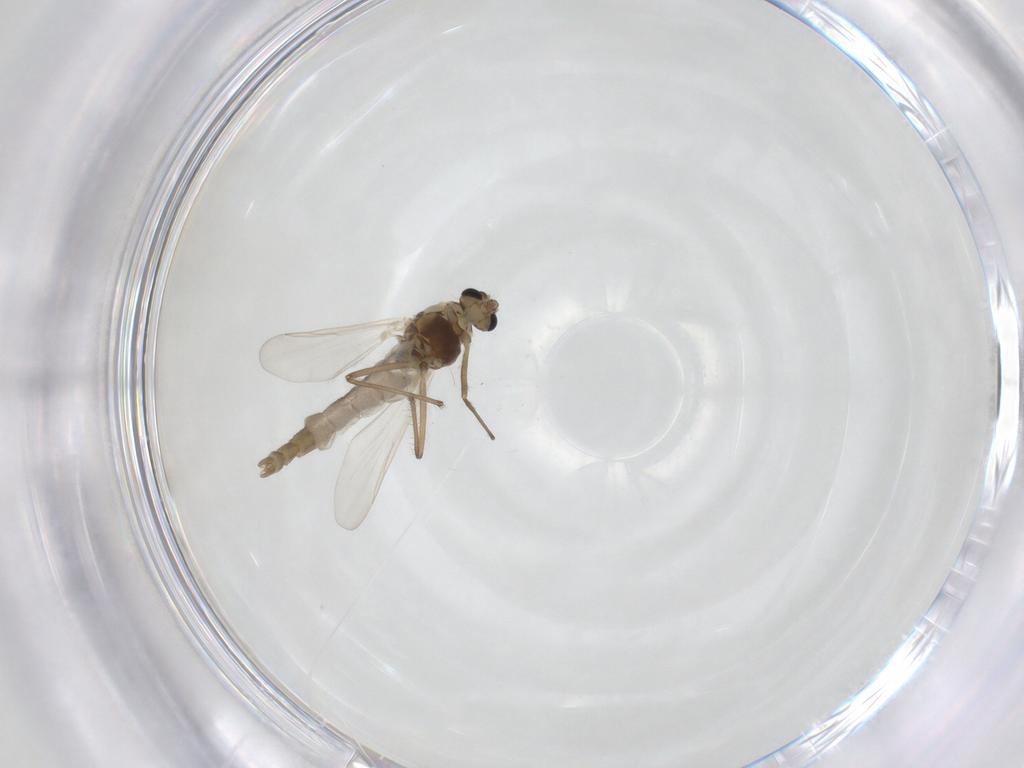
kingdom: Animalia
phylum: Arthropoda
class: Insecta
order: Diptera
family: Chironomidae
